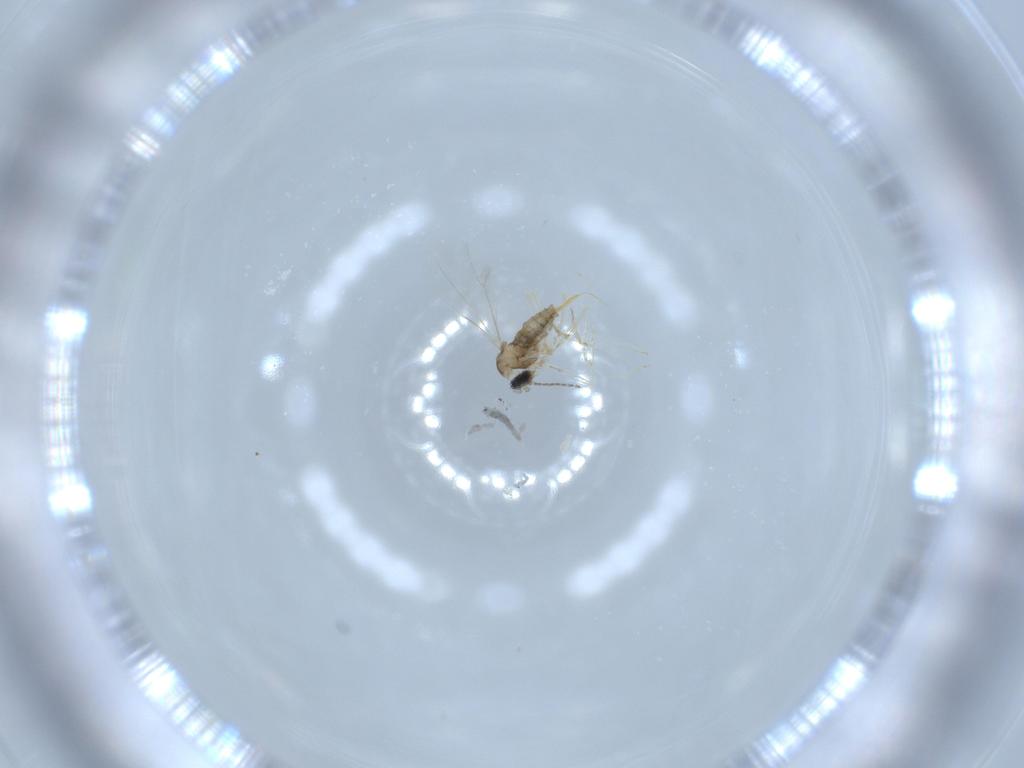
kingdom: Animalia
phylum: Arthropoda
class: Insecta
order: Diptera
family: Cecidomyiidae
